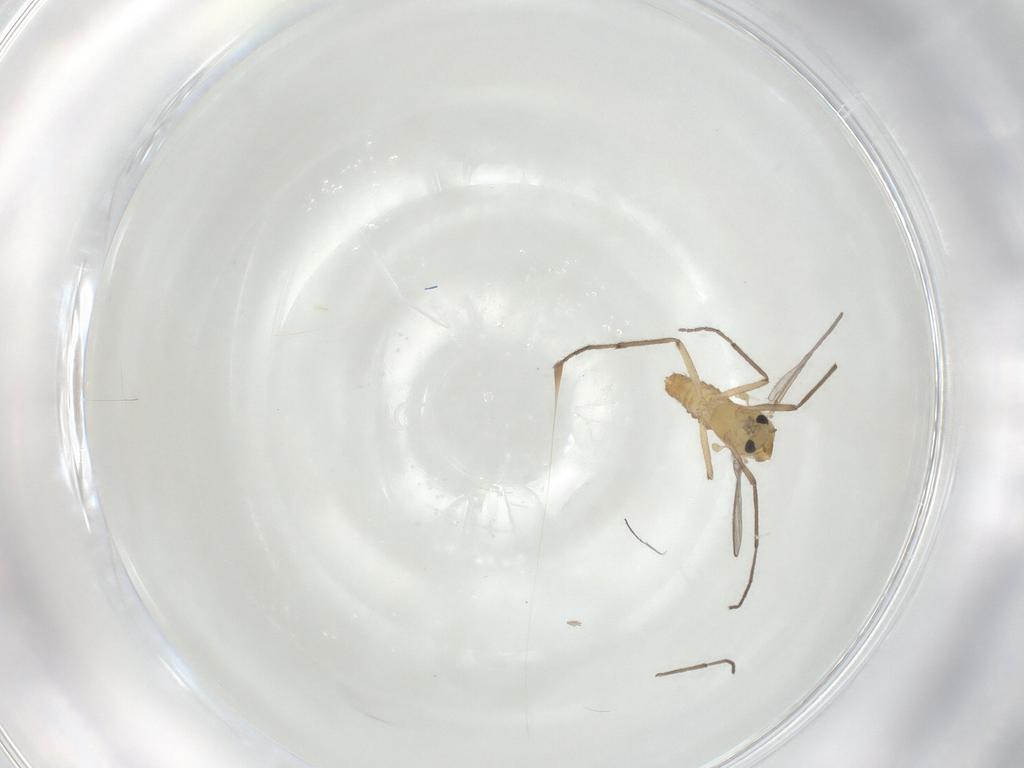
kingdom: Animalia
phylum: Arthropoda
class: Insecta
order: Diptera
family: Chironomidae
